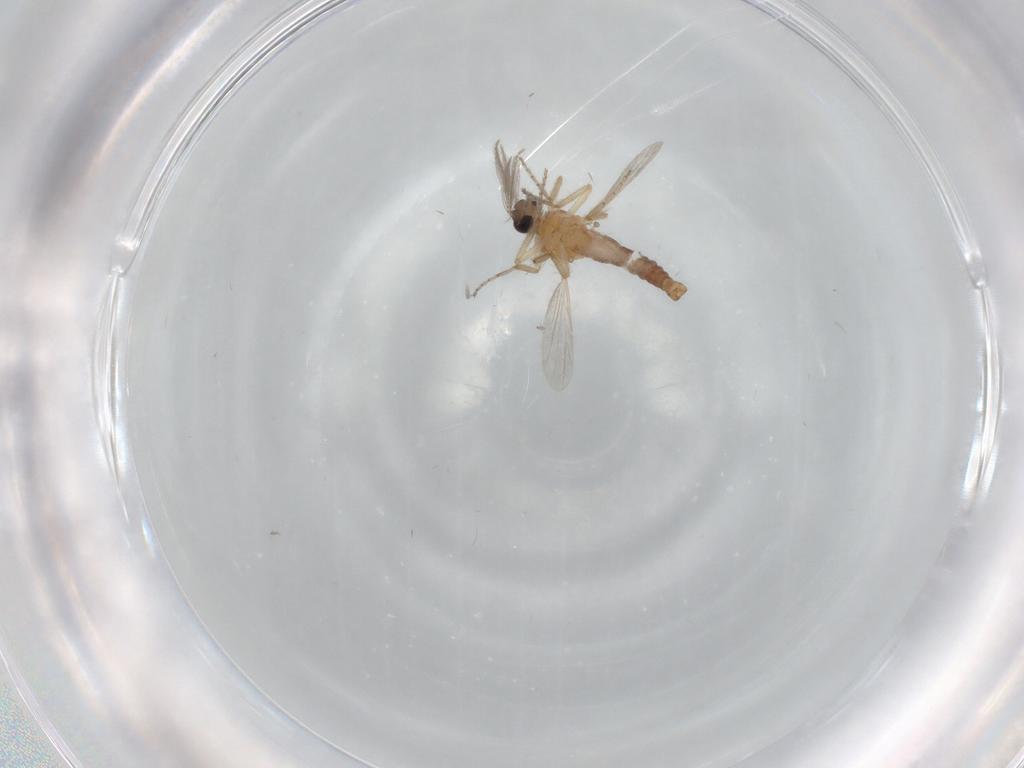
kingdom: Animalia
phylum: Arthropoda
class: Insecta
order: Diptera
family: Ceratopogonidae
